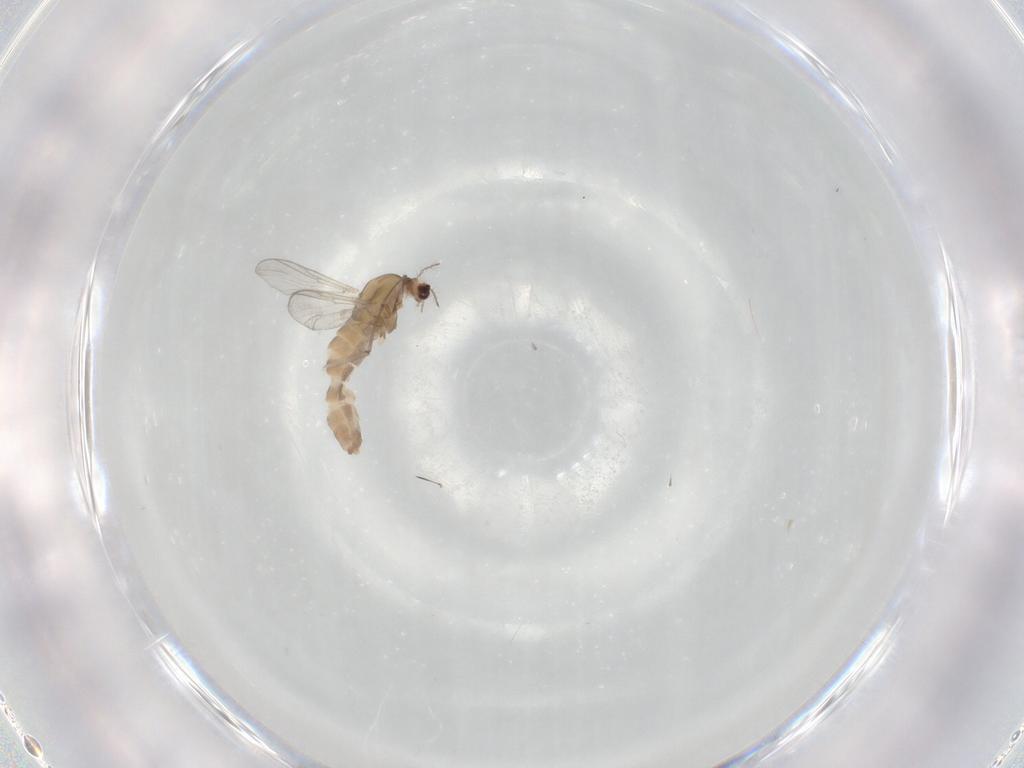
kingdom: Animalia
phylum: Arthropoda
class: Insecta
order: Diptera
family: Chironomidae
